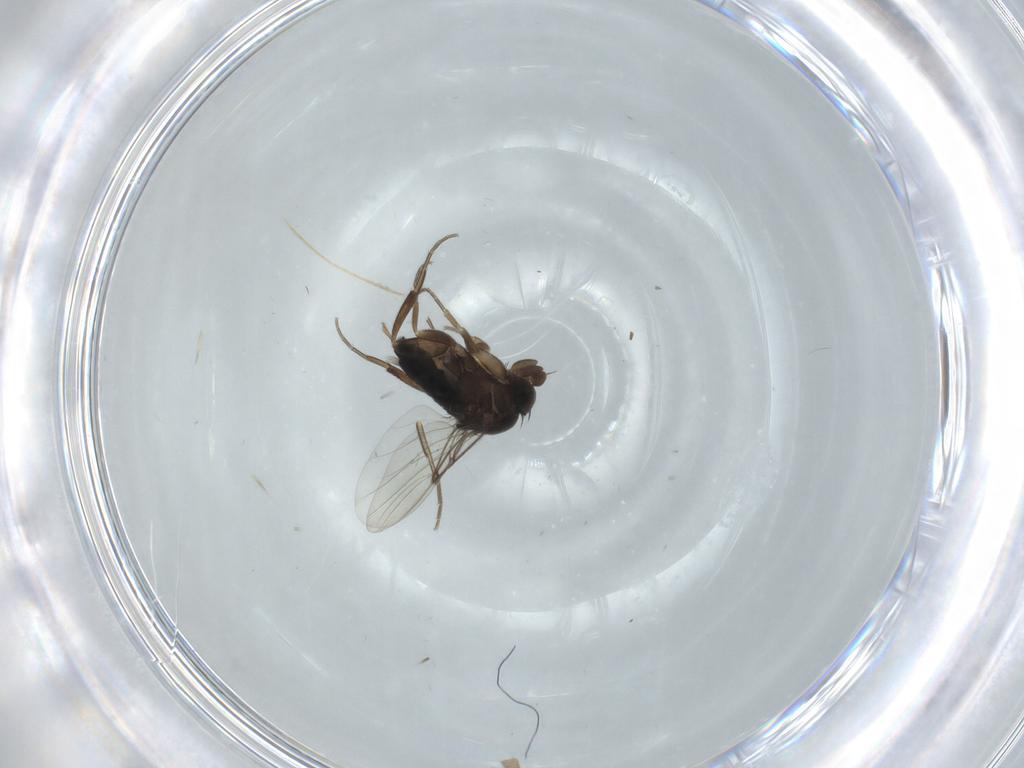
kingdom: Animalia
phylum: Arthropoda
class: Insecta
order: Diptera
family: Phoridae
